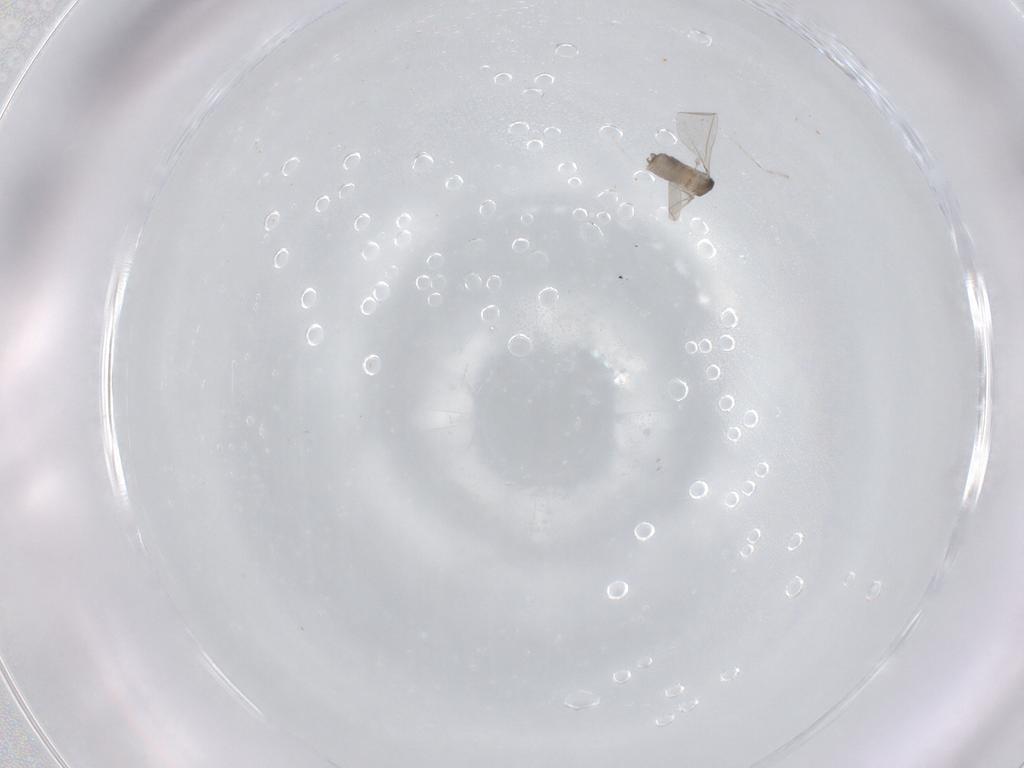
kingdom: Animalia
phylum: Arthropoda
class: Insecta
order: Diptera
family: Cecidomyiidae
